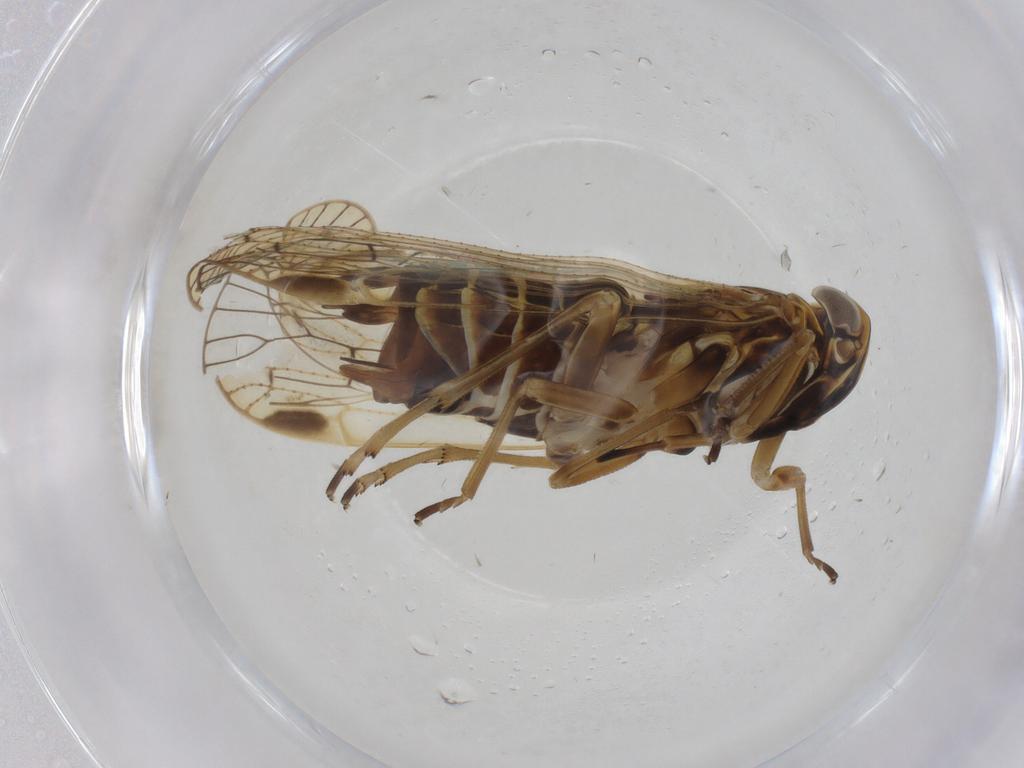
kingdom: Animalia
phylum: Arthropoda
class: Insecta
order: Hemiptera
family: Cixiidae
